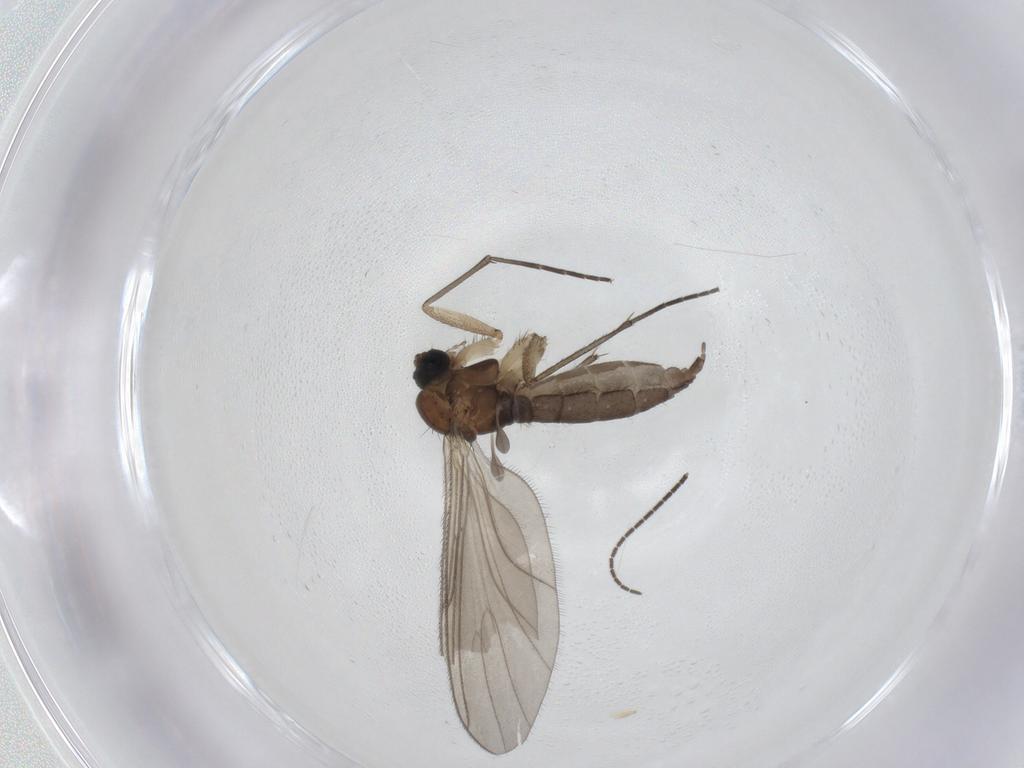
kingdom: Animalia
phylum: Arthropoda
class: Insecta
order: Diptera
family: Sciaridae
